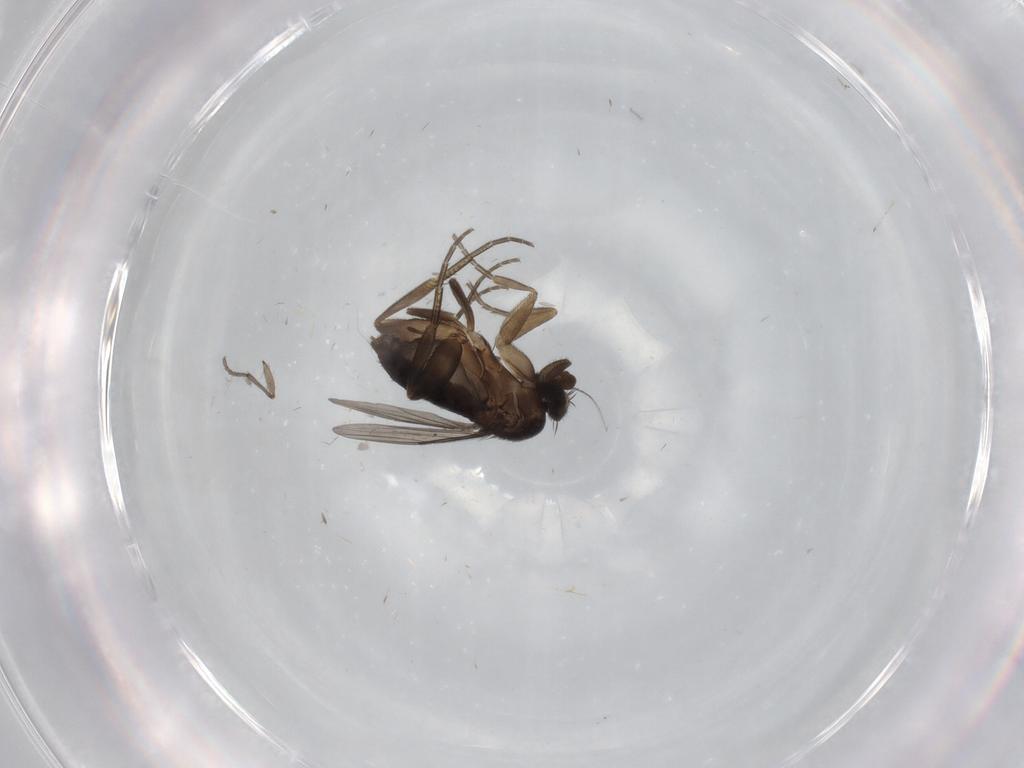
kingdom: Animalia
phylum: Arthropoda
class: Insecta
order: Diptera
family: Phoridae
